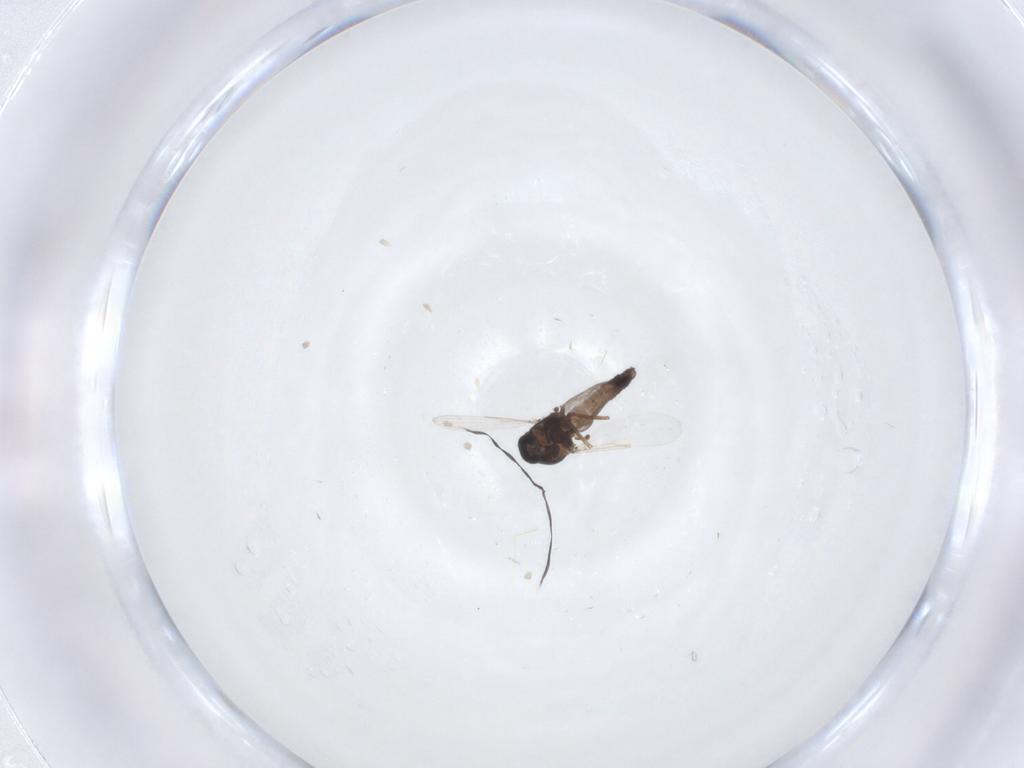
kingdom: Animalia
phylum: Arthropoda
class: Insecta
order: Diptera
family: Ceratopogonidae
